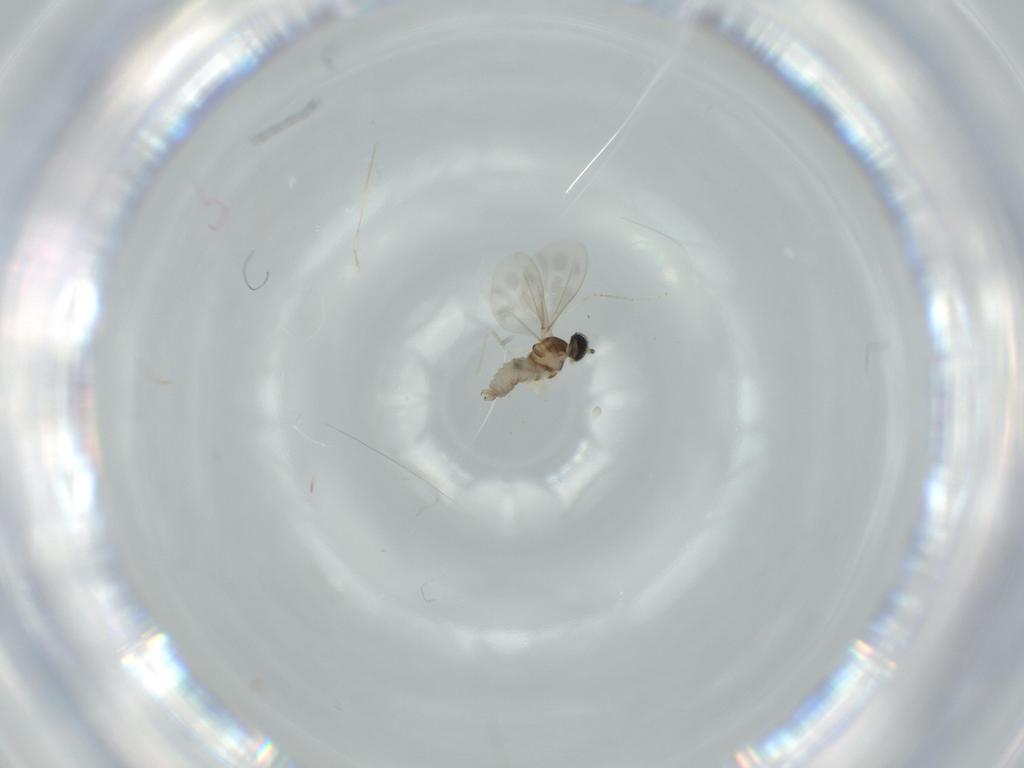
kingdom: Animalia
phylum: Arthropoda
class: Insecta
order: Diptera
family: Cecidomyiidae
